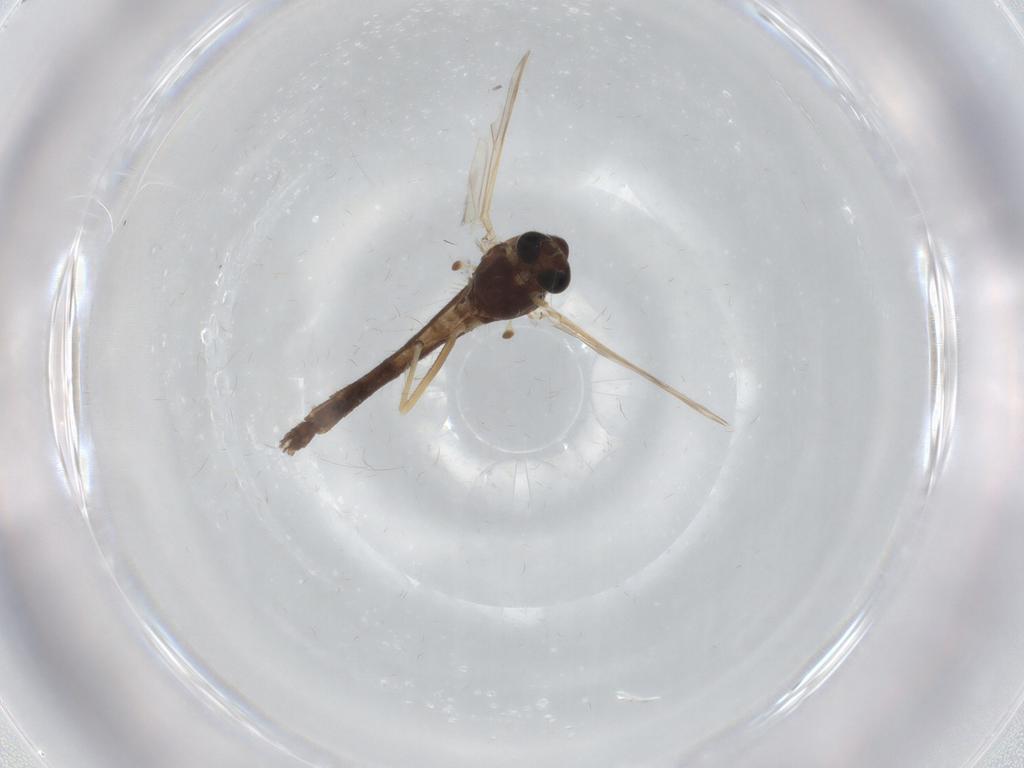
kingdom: Animalia
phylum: Arthropoda
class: Insecta
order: Diptera
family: Chironomidae
